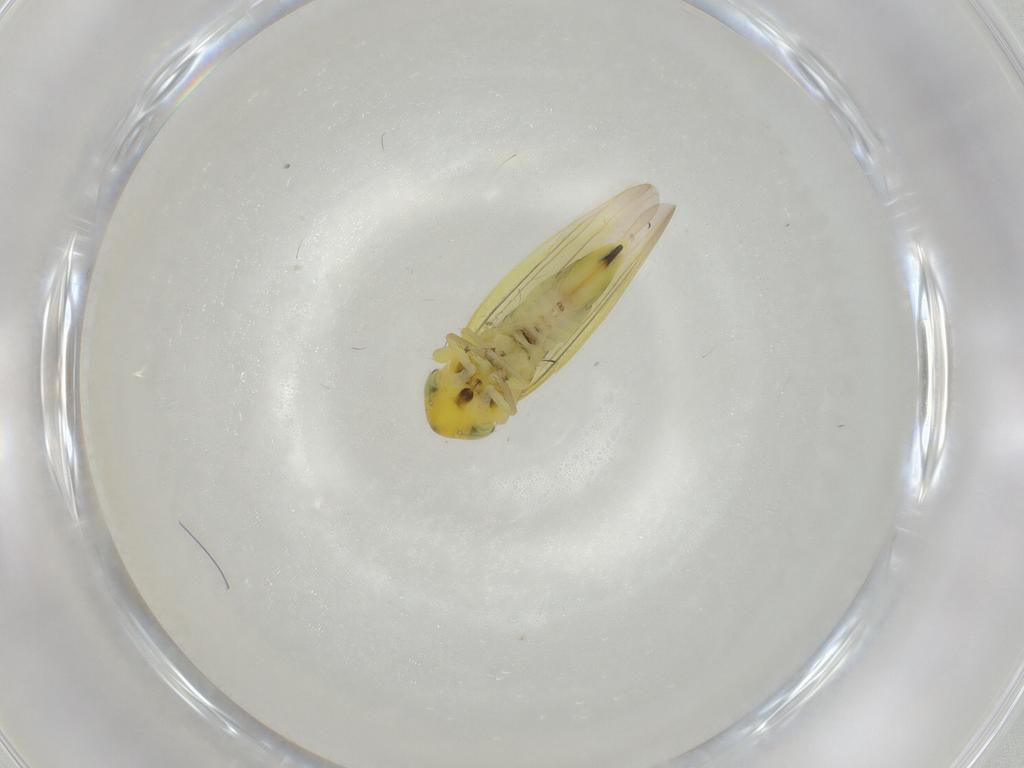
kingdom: Animalia
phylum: Arthropoda
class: Insecta
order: Hemiptera
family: Cicadellidae
